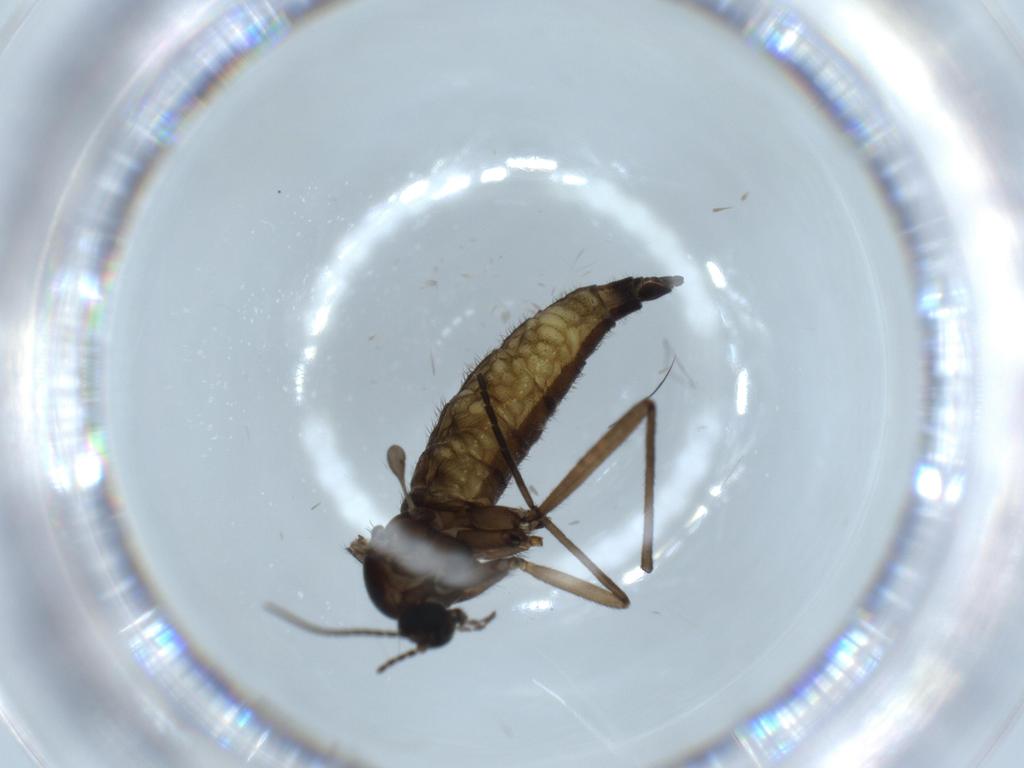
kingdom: Animalia
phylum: Arthropoda
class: Insecta
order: Diptera
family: Sciaridae
